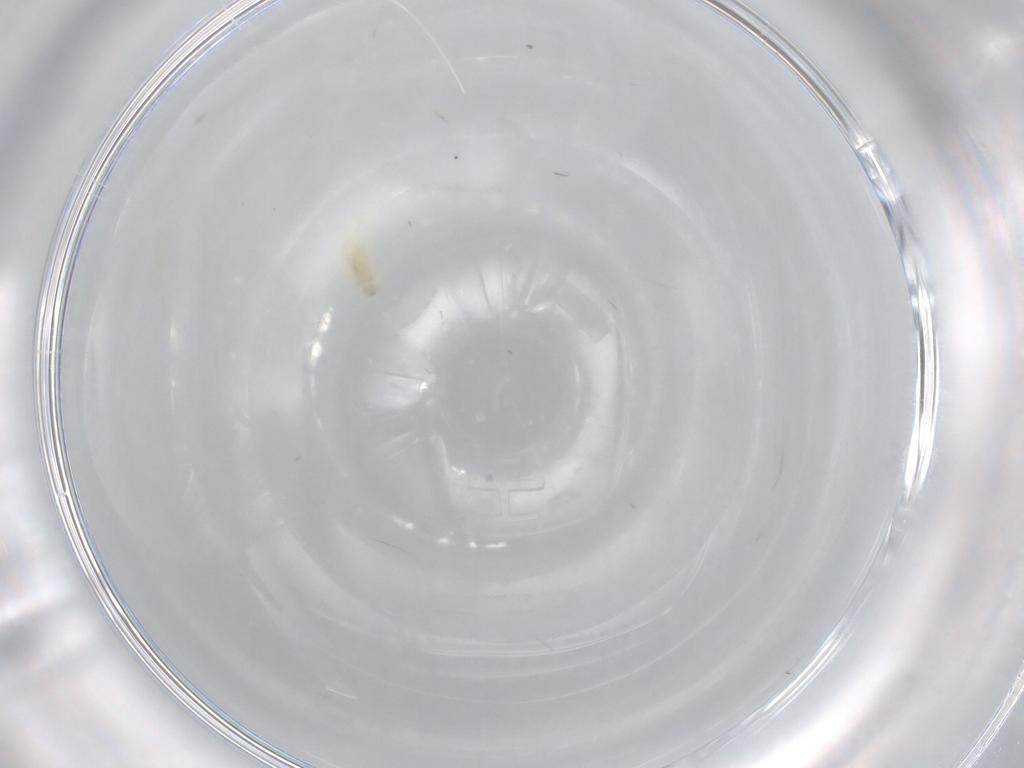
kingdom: Animalia
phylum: Arthropoda
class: Arachnida
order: Trombidiformes
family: Erythraeidae
